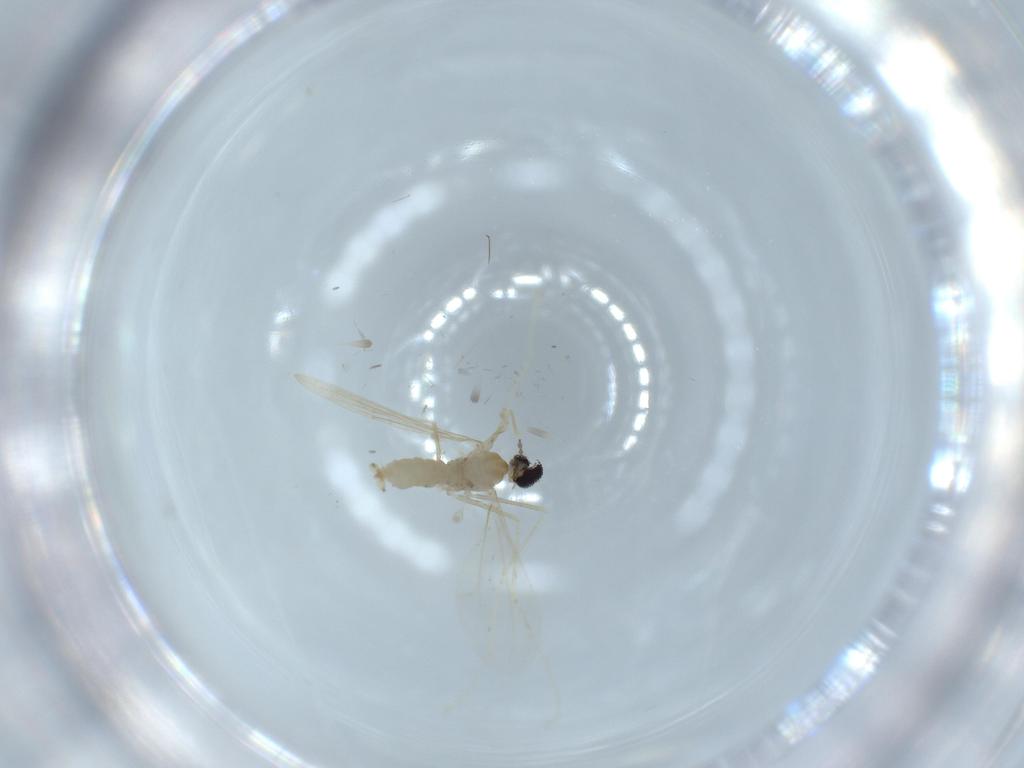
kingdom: Animalia
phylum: Arthropoda
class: Insecta
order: Diptera
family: Cecidomyiidae
